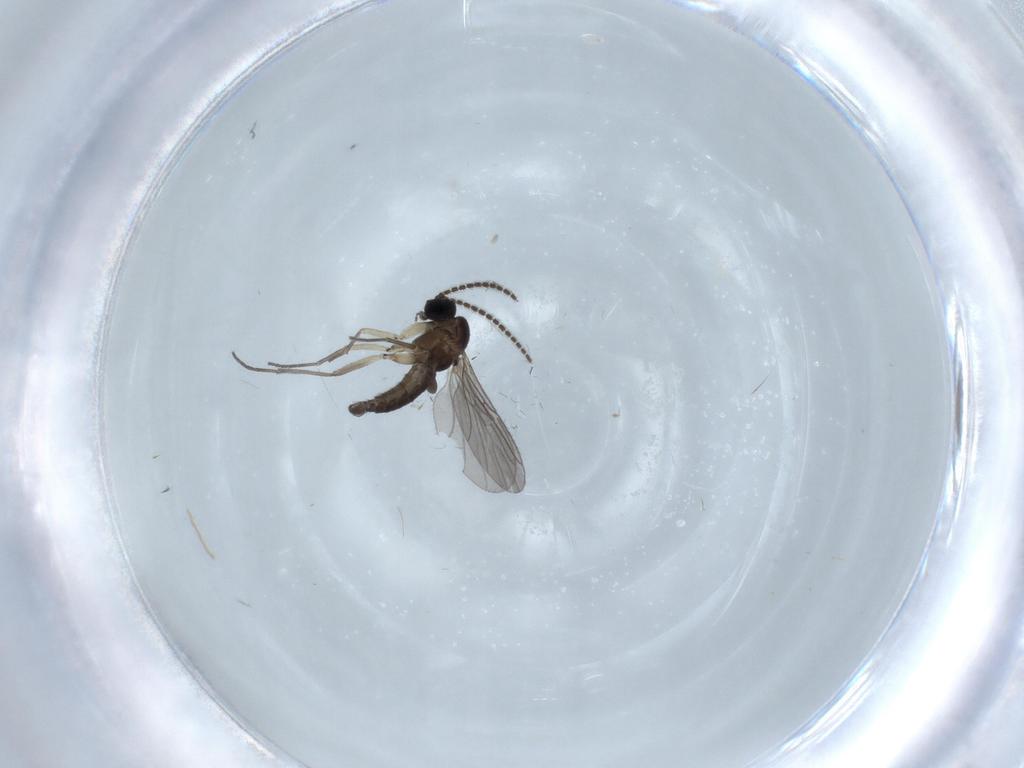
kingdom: Animalia
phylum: Arthropoda
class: Insecta
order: Diptera
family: Sciaridae
